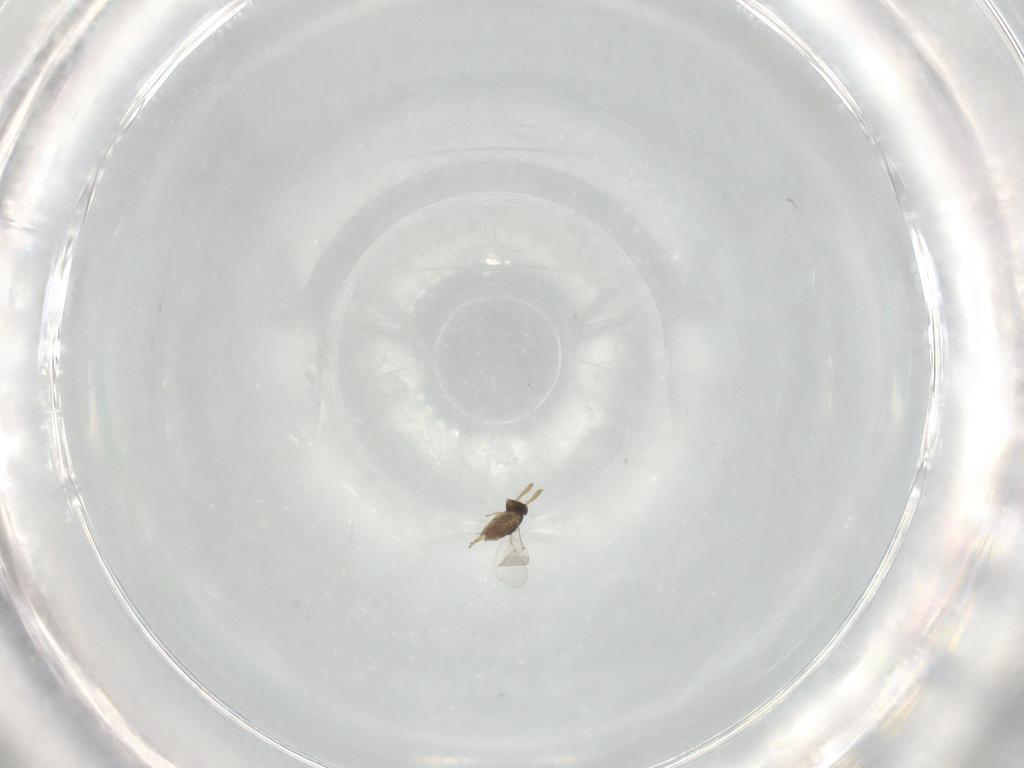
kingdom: Animalia
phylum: Arthropoda
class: Insecta
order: Hymenoptera
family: Encyrtidae
